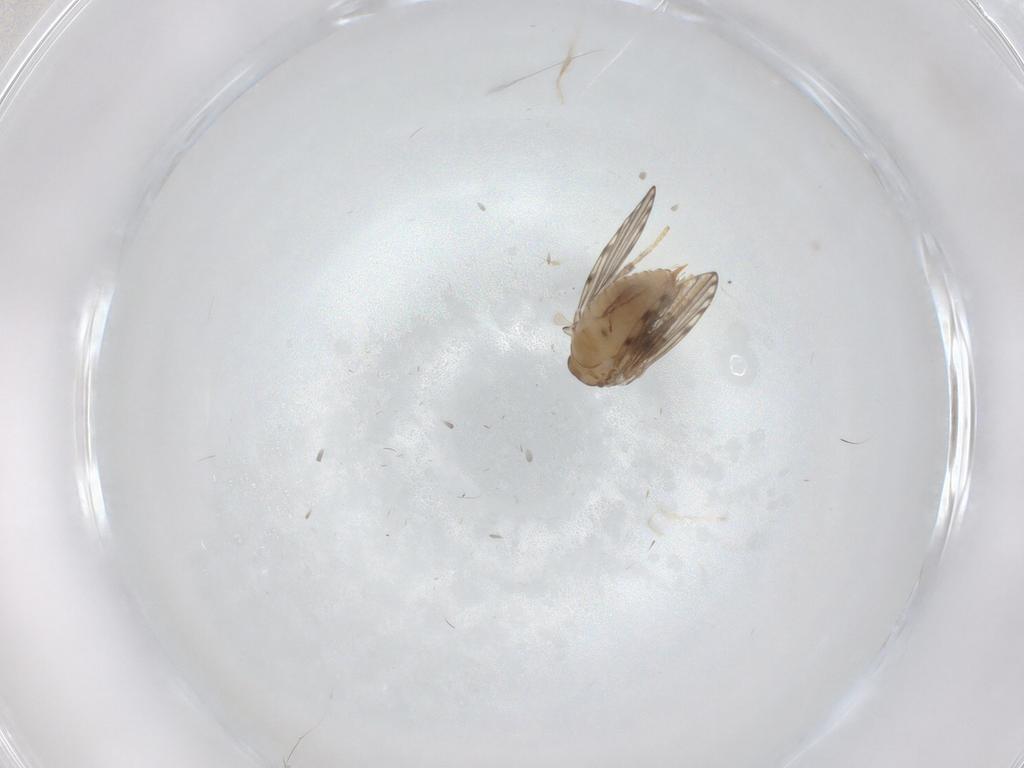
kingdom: Animalia
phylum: Arthropoda
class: Insecta
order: Diptera
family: Psychodidae
